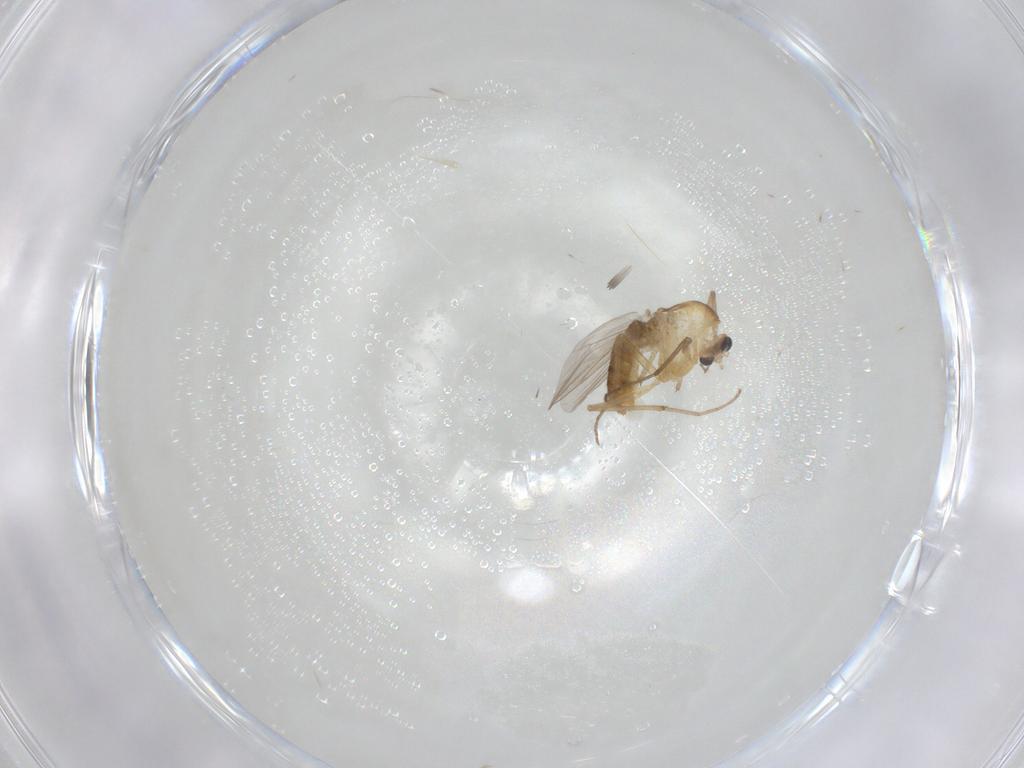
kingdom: Animalia
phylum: Arthropoda
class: Insecta
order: Diptera
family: Chironomidae
